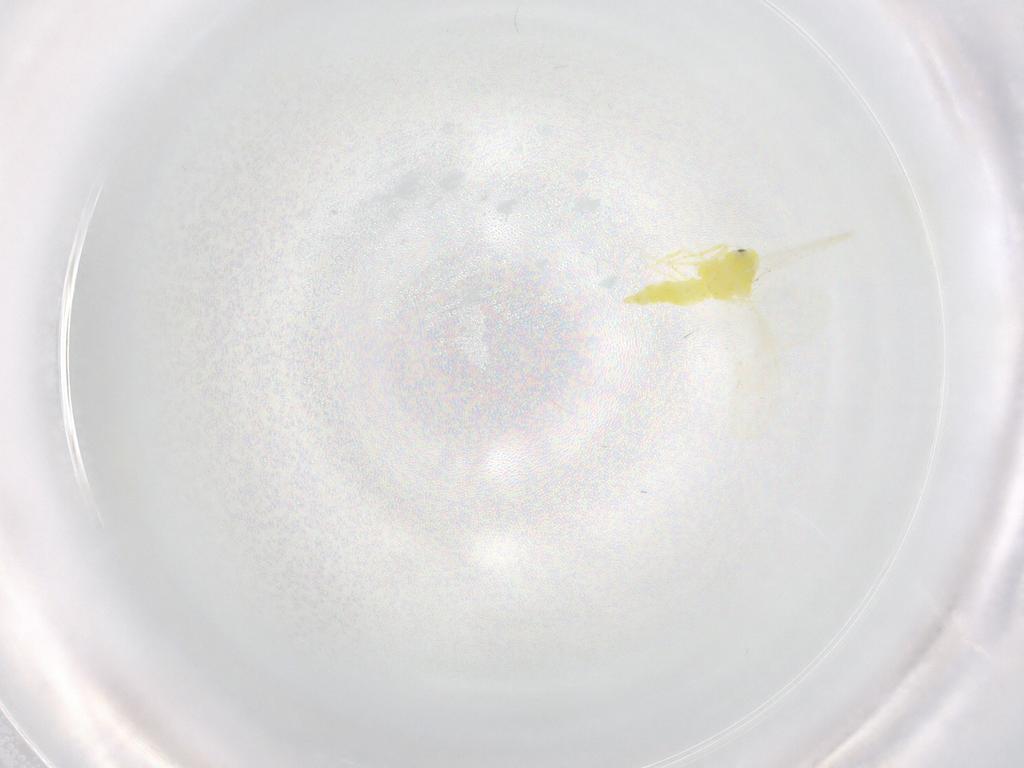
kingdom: Animalia
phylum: Arthropoda
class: Insecta
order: Hemiptera
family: Aleyrodidae
